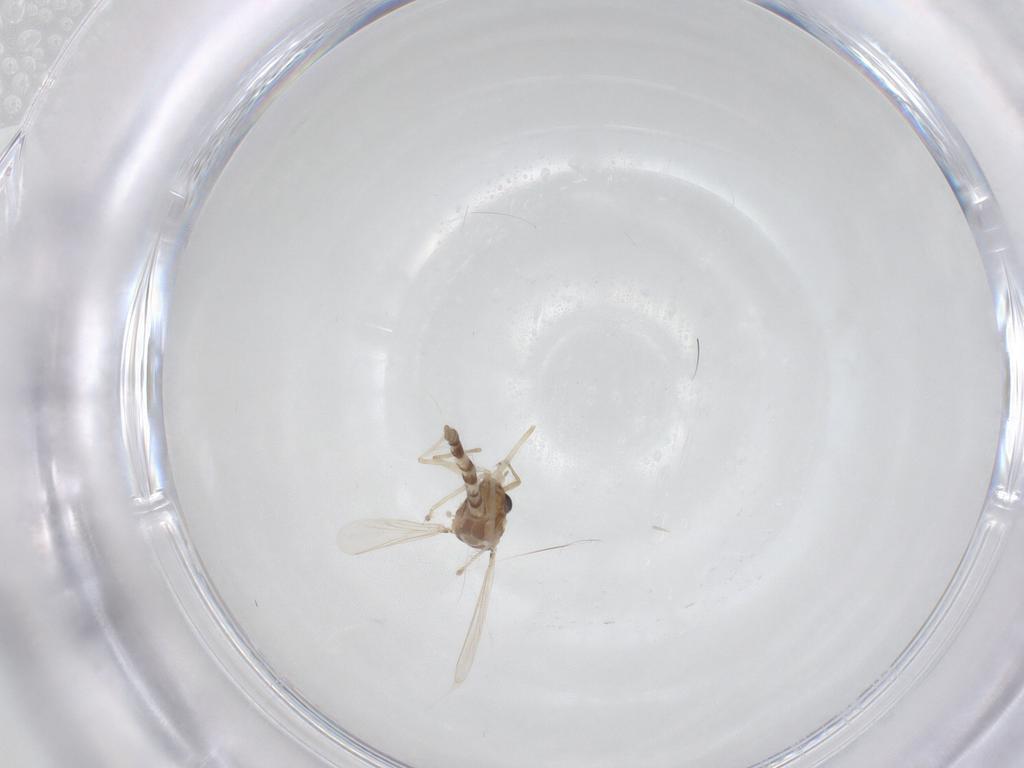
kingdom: Animalia
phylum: Arthropoda
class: Insecta
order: Diptera
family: Chironomidae
